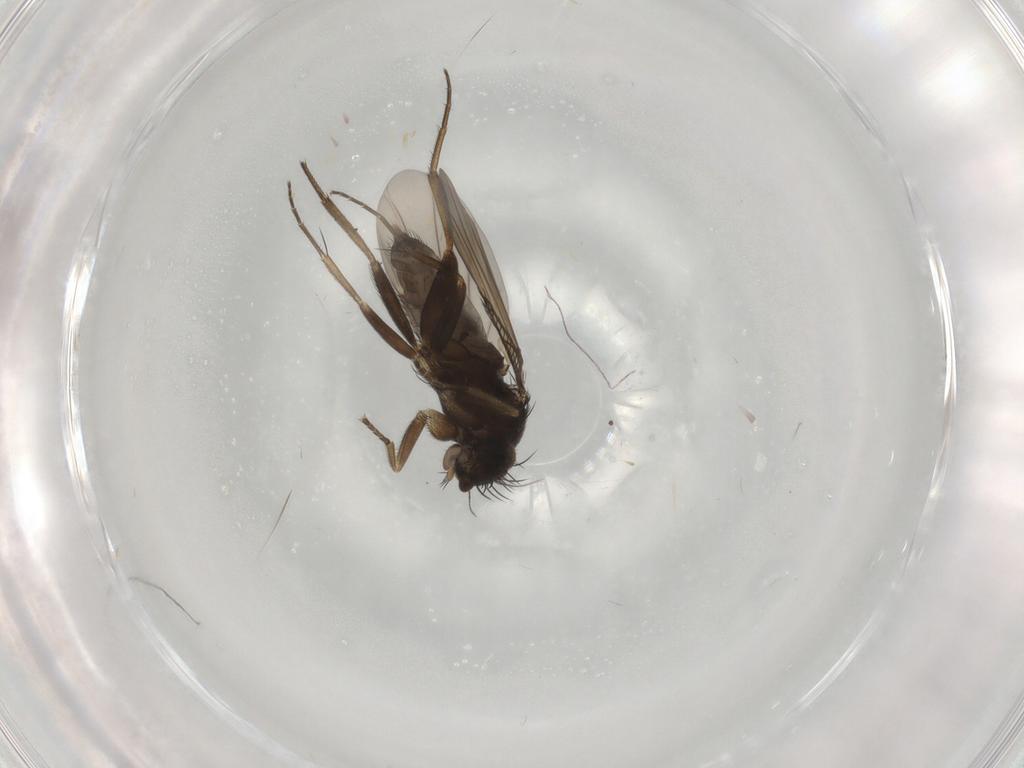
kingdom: Animalia
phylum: Arthropoda
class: Insecta
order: Diptera
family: Phoridae
